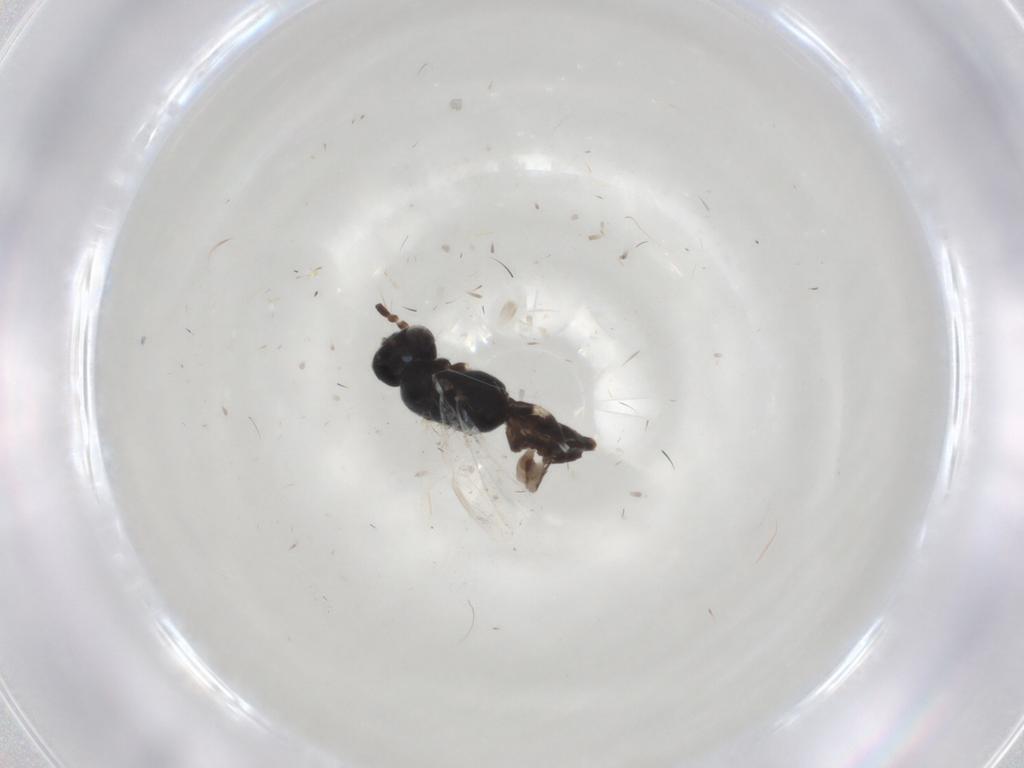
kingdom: Animalia
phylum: Arthropoda
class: Insecta
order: Hymenoptera
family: Dryinidae
